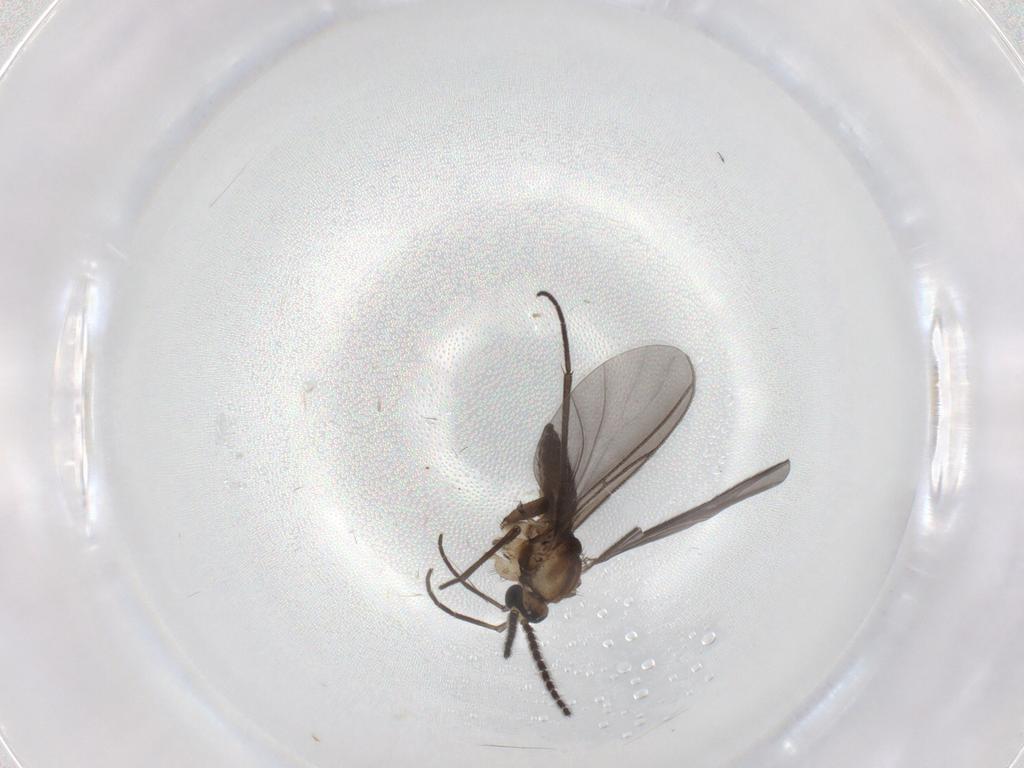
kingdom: Animalia
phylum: Arthropoda
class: Insecta
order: Diptera
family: Sciaridae
